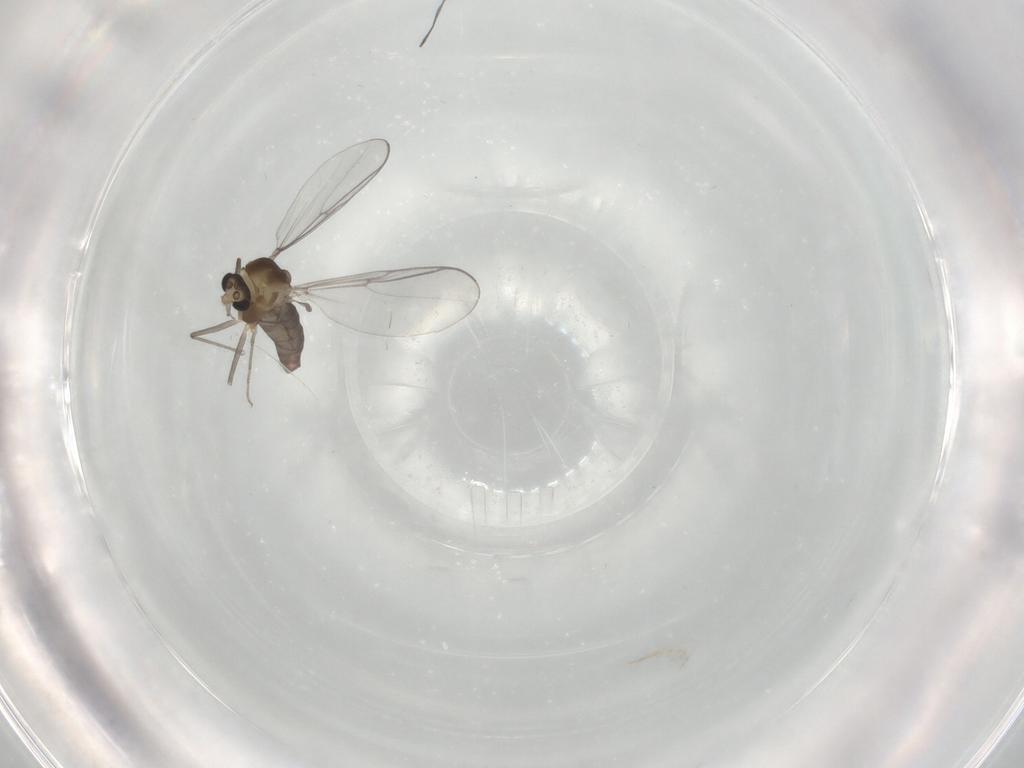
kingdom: Animalia
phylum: Arthropoda
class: Insecta
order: Diptera
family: Chironomidae
